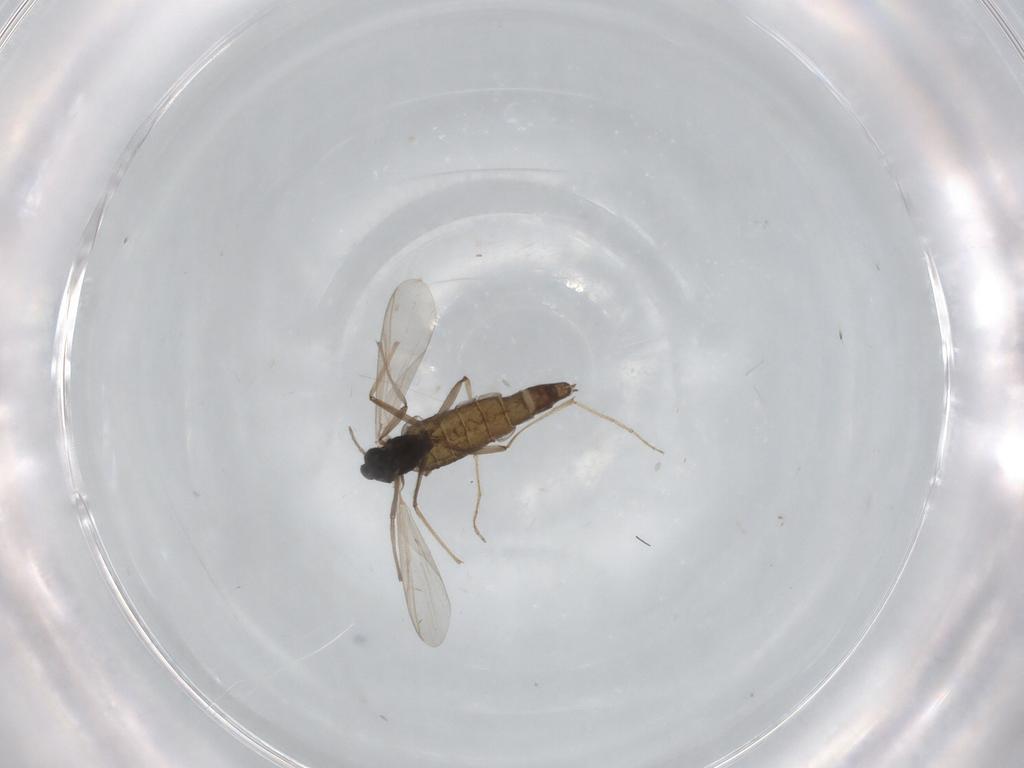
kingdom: Animalia
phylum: Arthropoda
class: Insecta
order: Diptera
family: Chironomidae
